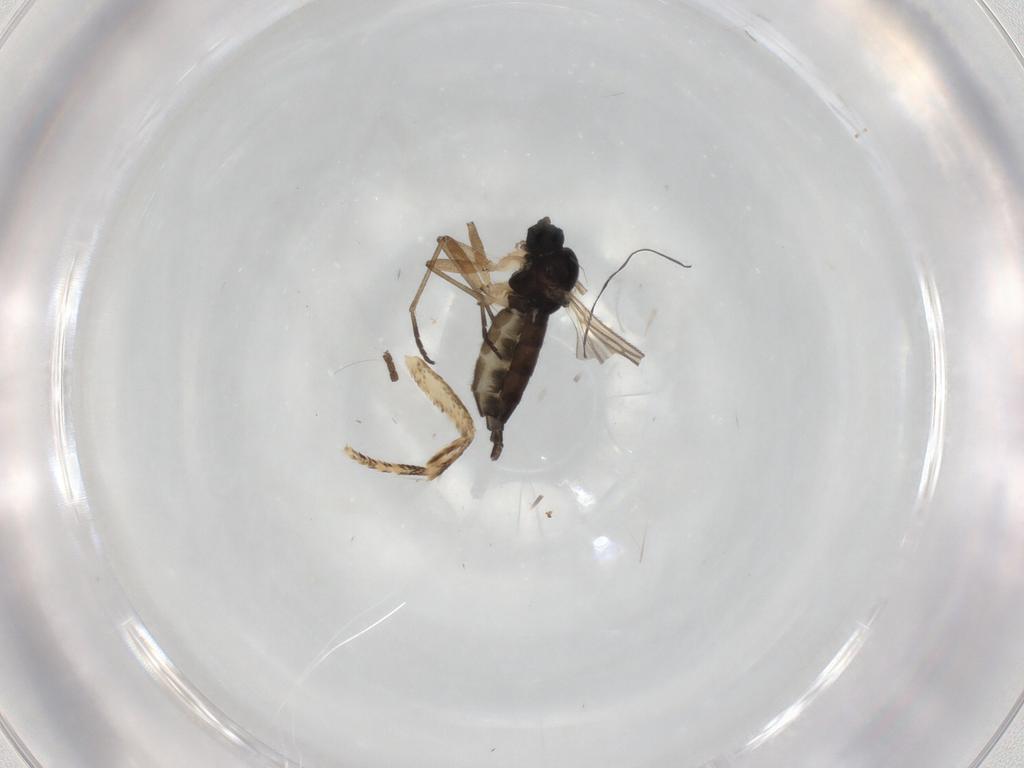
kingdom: Animalia
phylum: Arthropoda
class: Insecta
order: Diptera
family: Sciaridae
